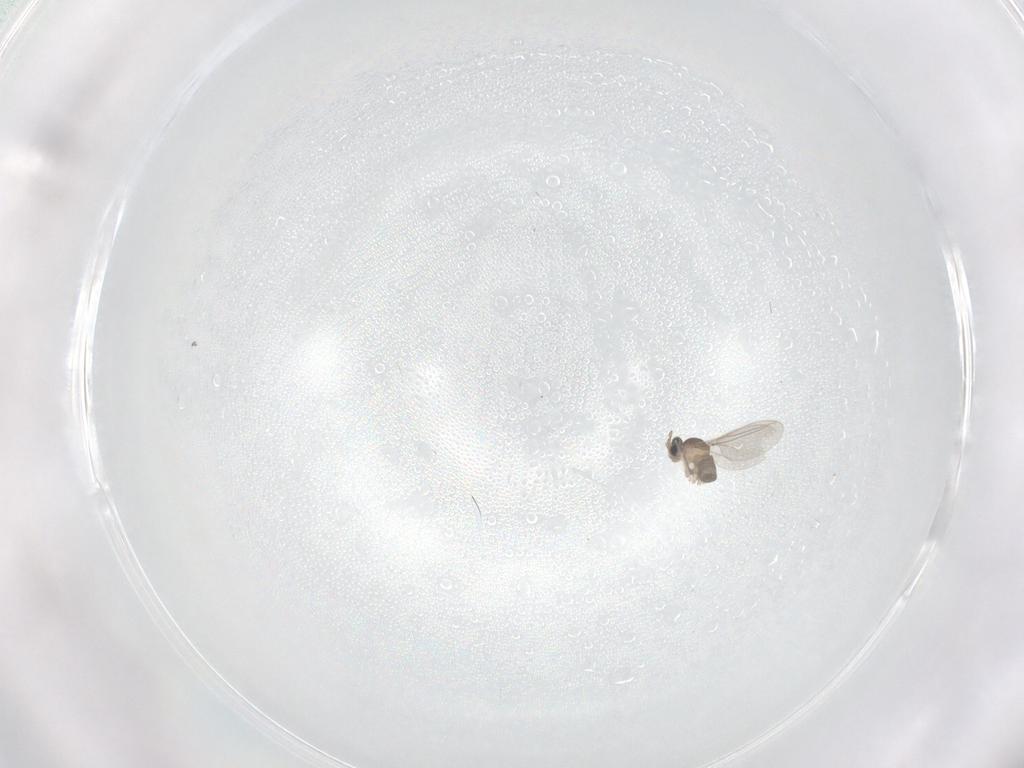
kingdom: Animalia
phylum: Arthropoda
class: Insecta
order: Diptera
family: Cecidomyiidae
